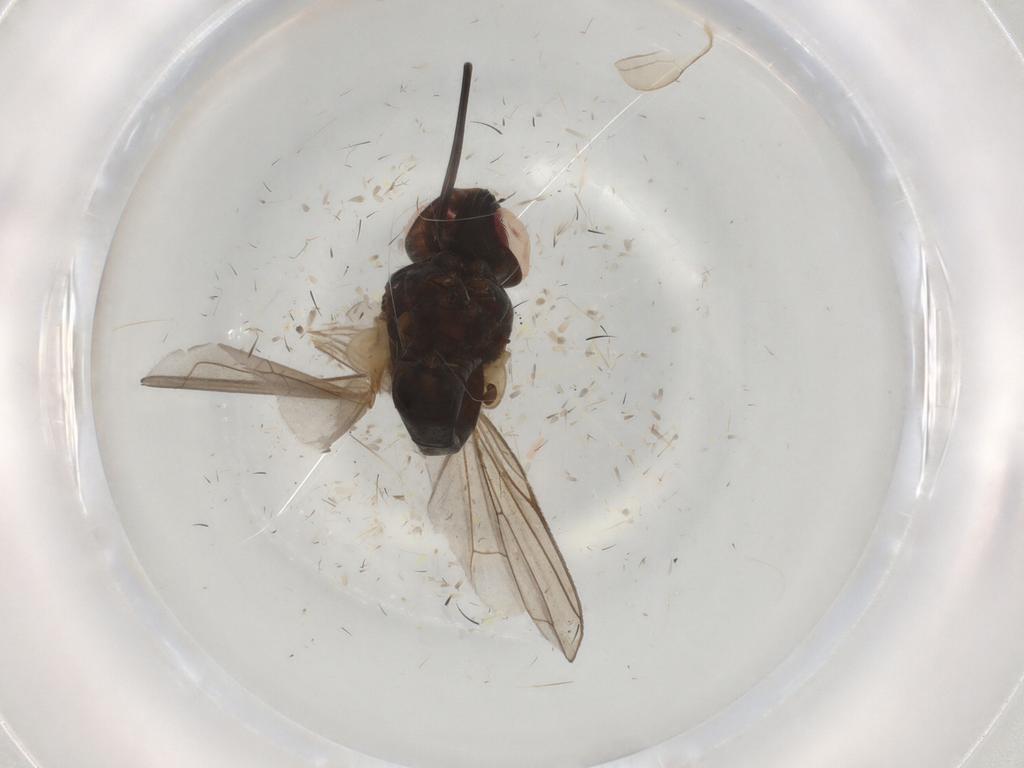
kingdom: Animalia
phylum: Arthropoda
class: Insecta
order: Diptera
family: Tachinidae
